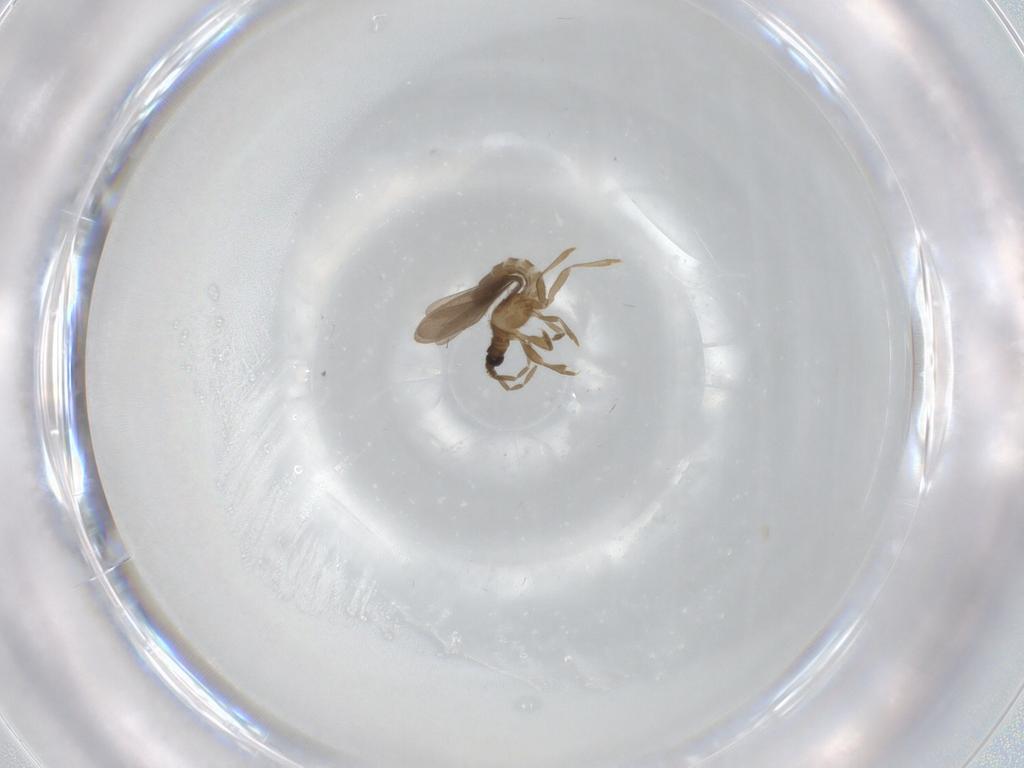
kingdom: Animalia
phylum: Arthropoda
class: Insecta
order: Hemiptera
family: Enicocephalidae
